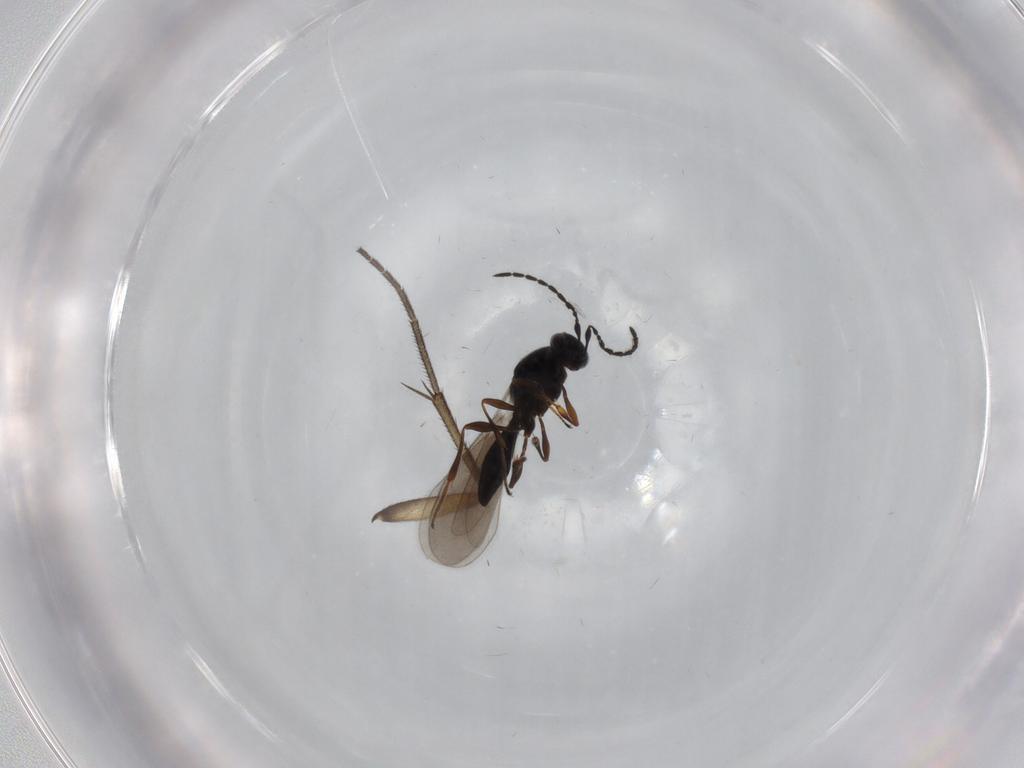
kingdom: Animalia
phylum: Arthropoda
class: Insecta
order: Hymenoptera
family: Platygastridae
